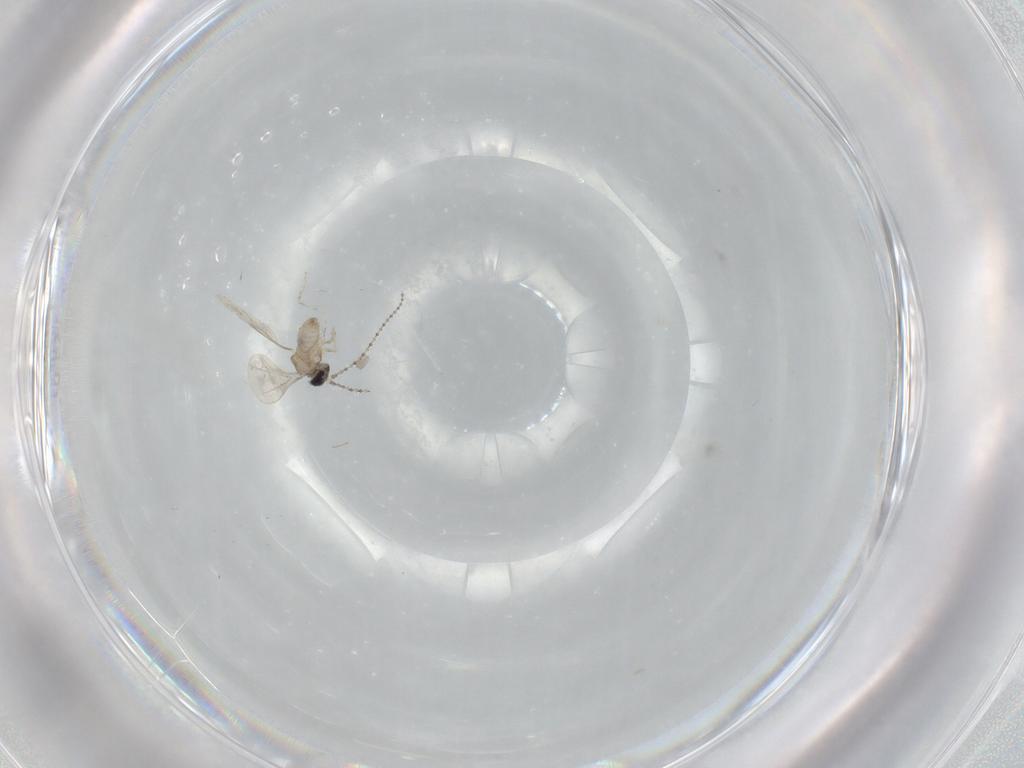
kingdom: Animalia
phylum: Arthropoda
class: Insecta
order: Diptera
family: Cecidomyiidae
